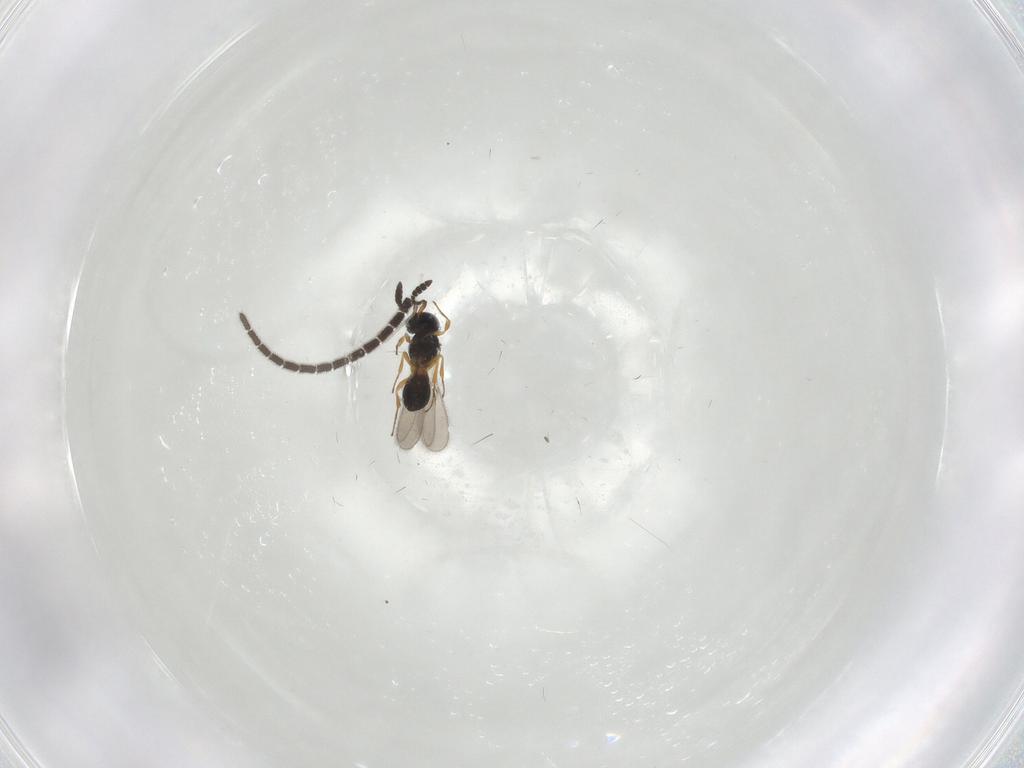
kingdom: Animalia
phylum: Arthropoda
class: Insecta
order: Hymenoptera
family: Scelionidae
